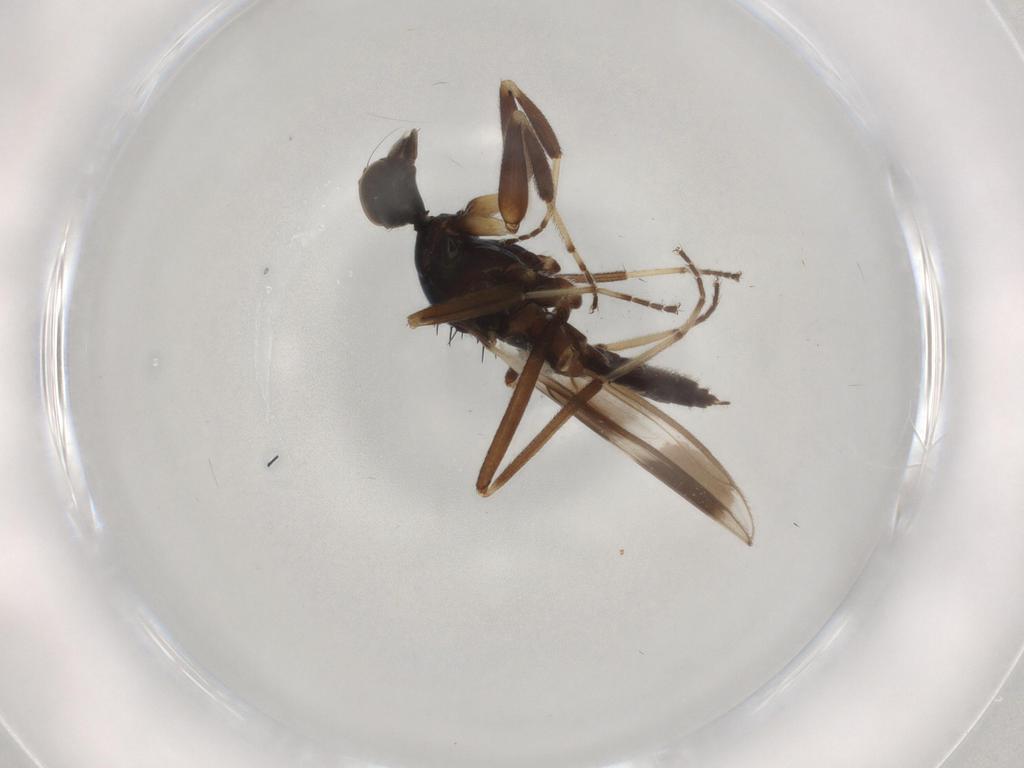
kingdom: Animalia
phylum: Arthropoda
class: Insecta
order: Diptera
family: Hybotidae
